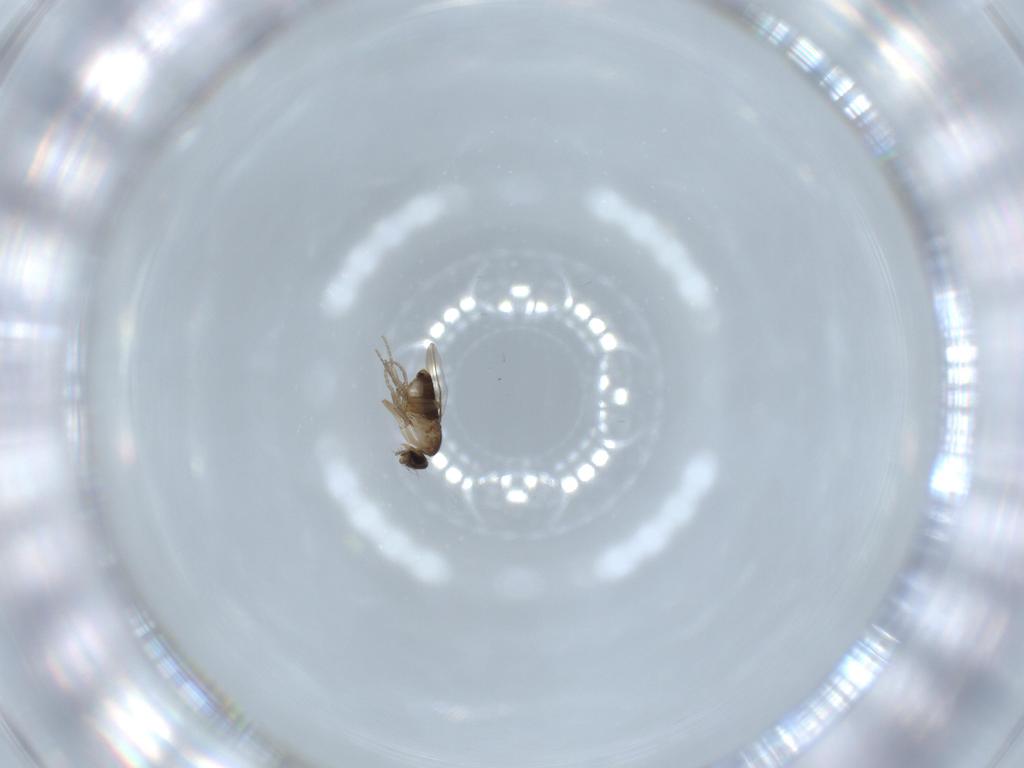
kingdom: Animalia
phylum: Arthropoda
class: Insecta
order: Diptera
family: Phoridae
